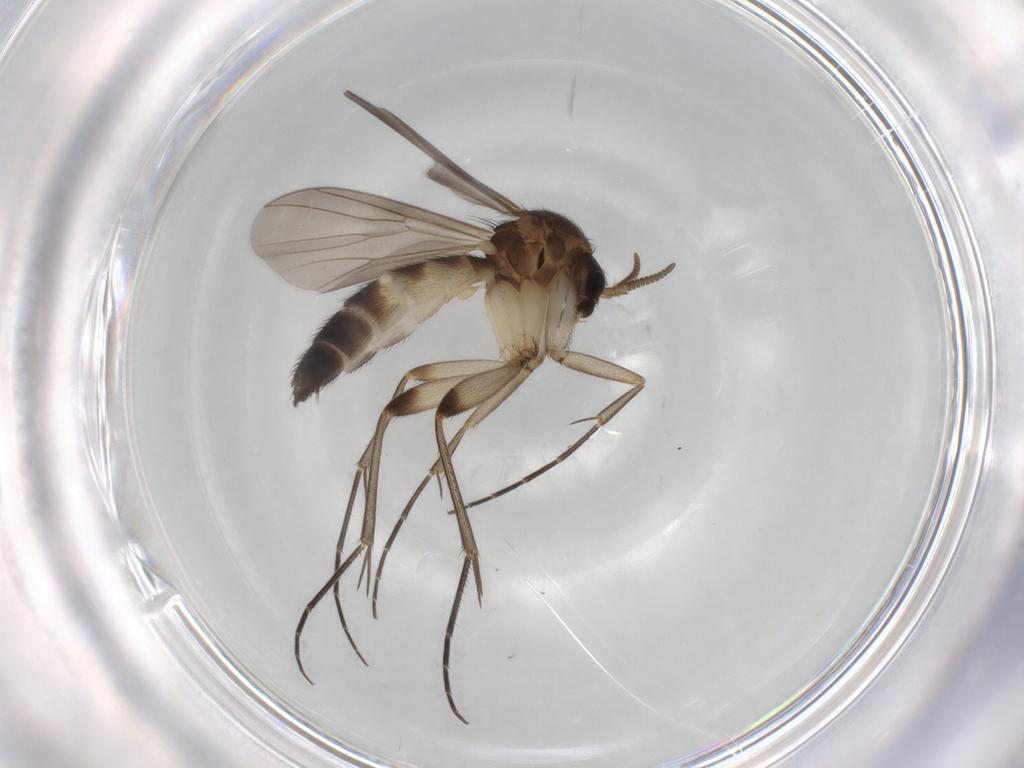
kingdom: Animalia
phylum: Arthropoda
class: Insecta
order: Diptera
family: Mycetophilidae
